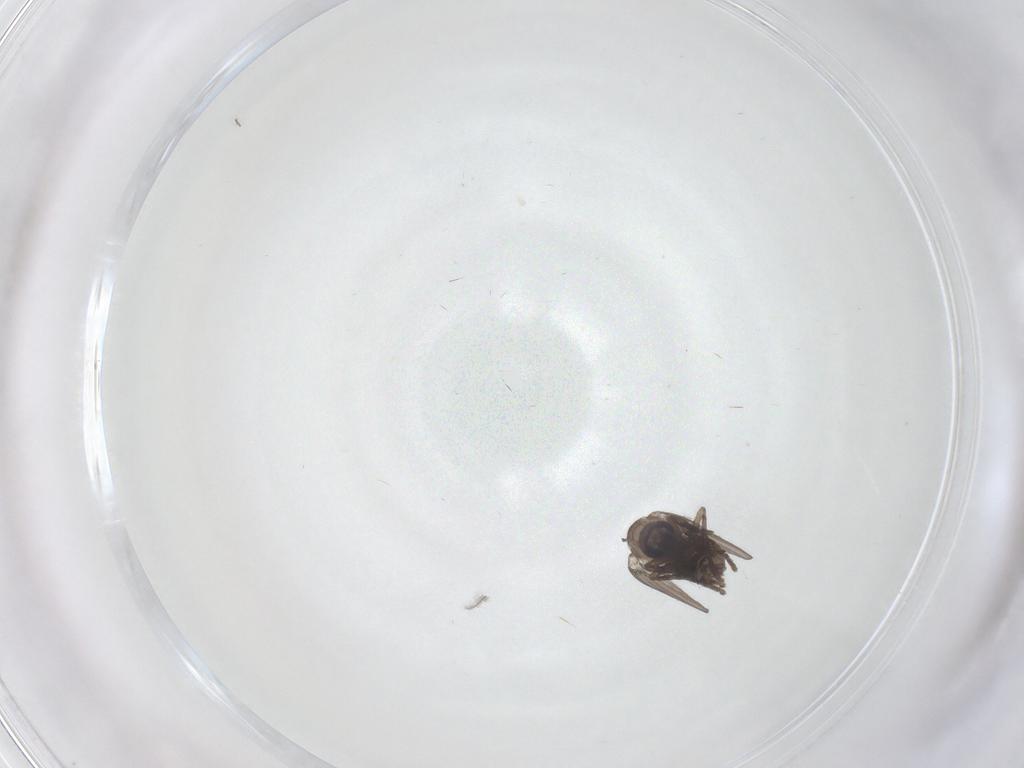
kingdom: Animalia
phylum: Arthropoda
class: Insecta
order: Diptera
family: Psychodidae
